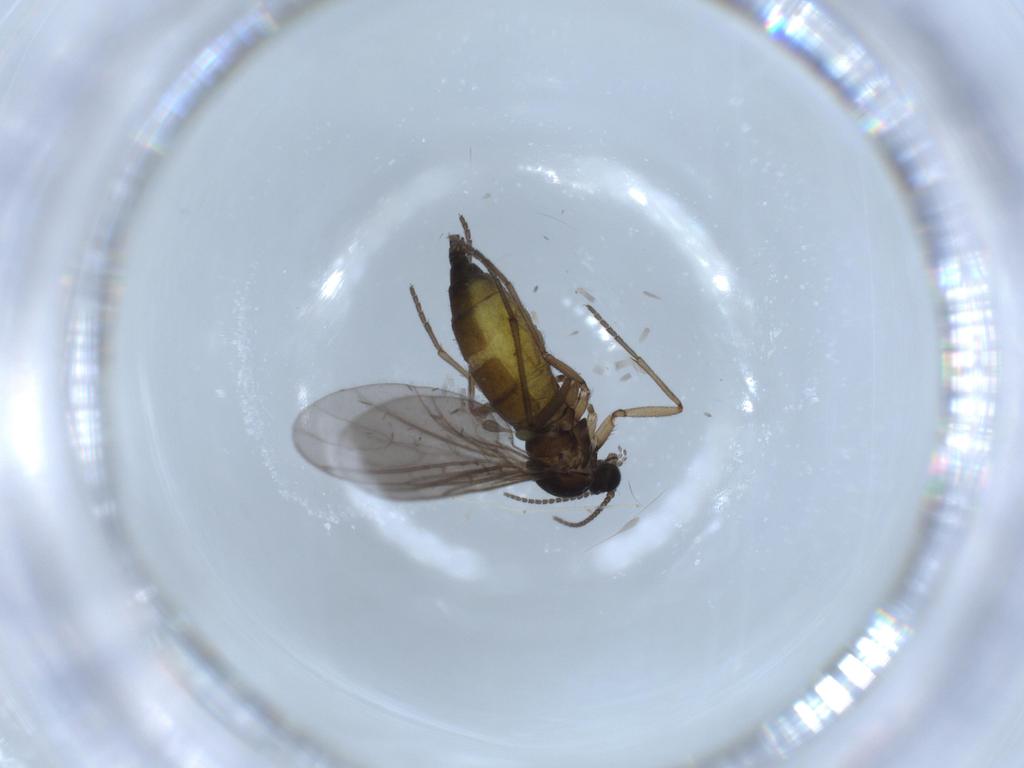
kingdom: Animalia
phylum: Arthropoda
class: Insecta
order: Diptera
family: Sciaridae
